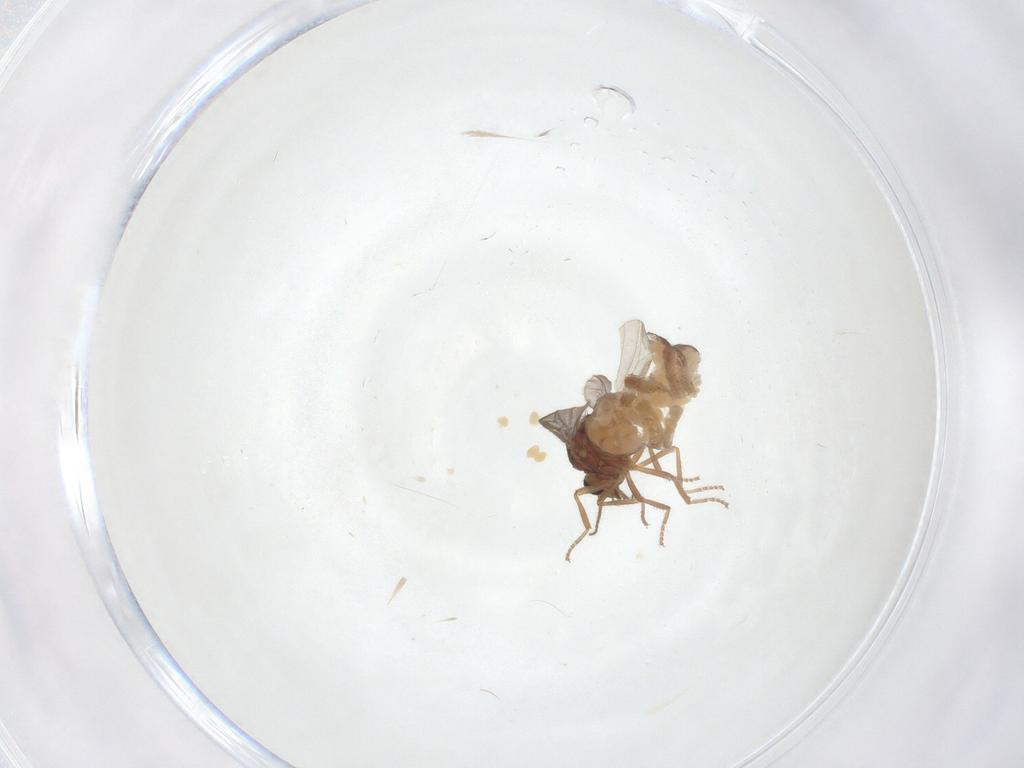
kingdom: Animalia
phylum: Arthropoda
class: Insecta
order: Diptera
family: Ceratopogonidae
